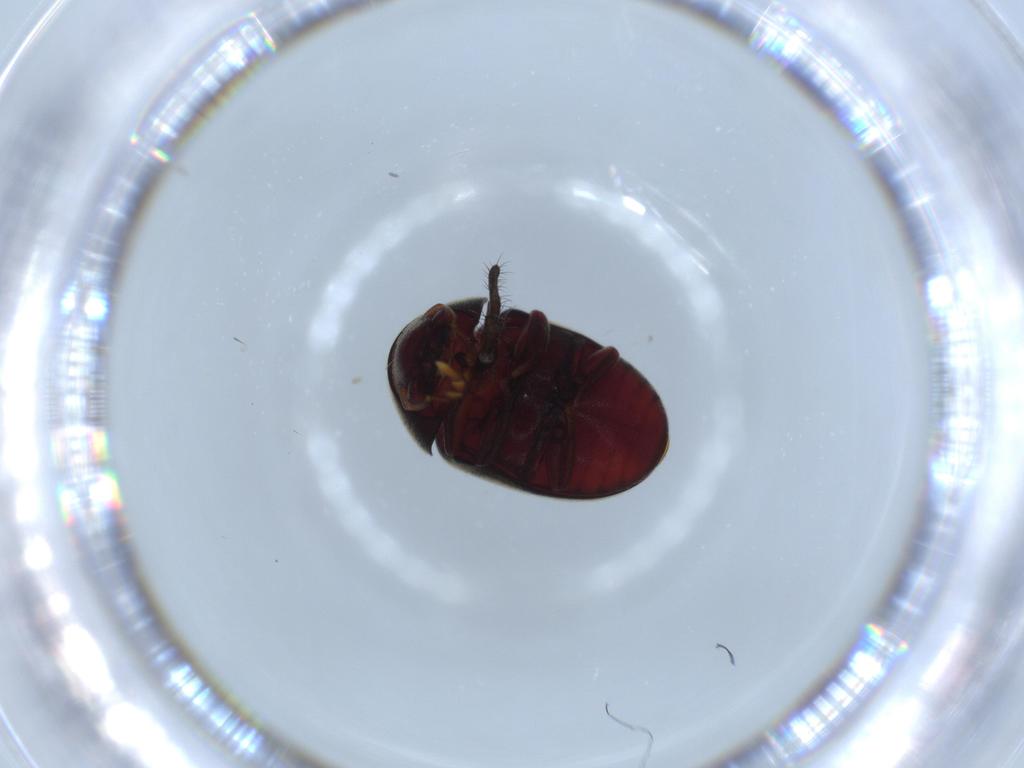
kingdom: Animalia
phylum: Arthropoda
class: Insecta
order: Coleoptera
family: Ptinidae
